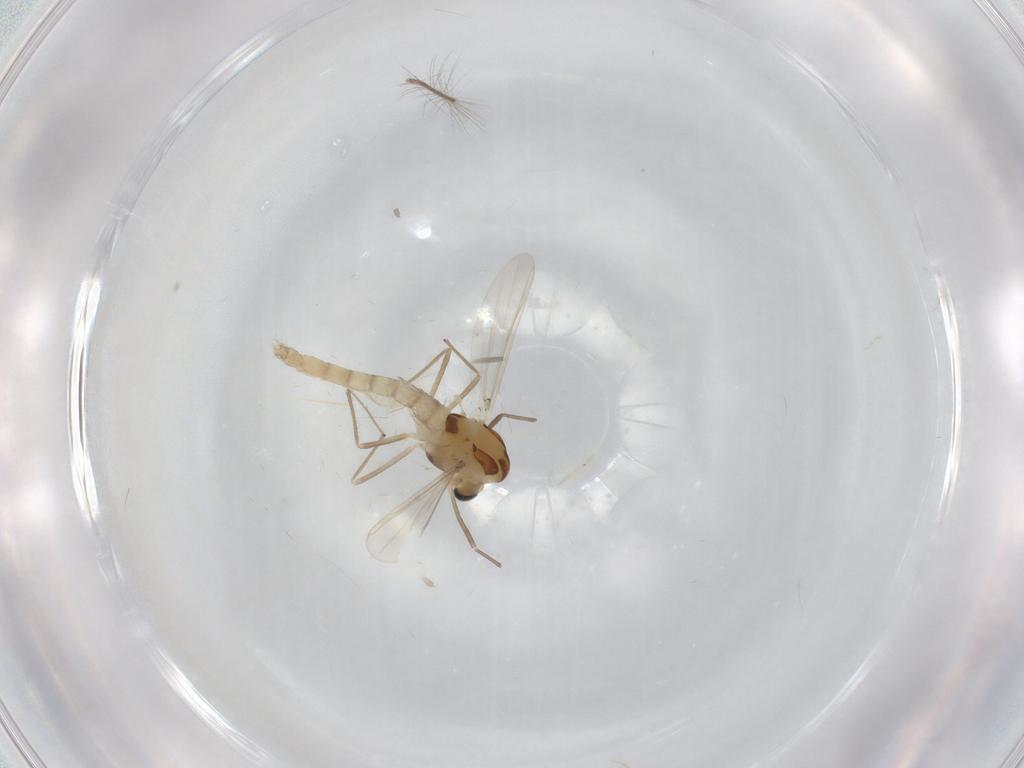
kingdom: Animalia
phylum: Arthropoda
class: Insecta
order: Diptera
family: Chironomidae
